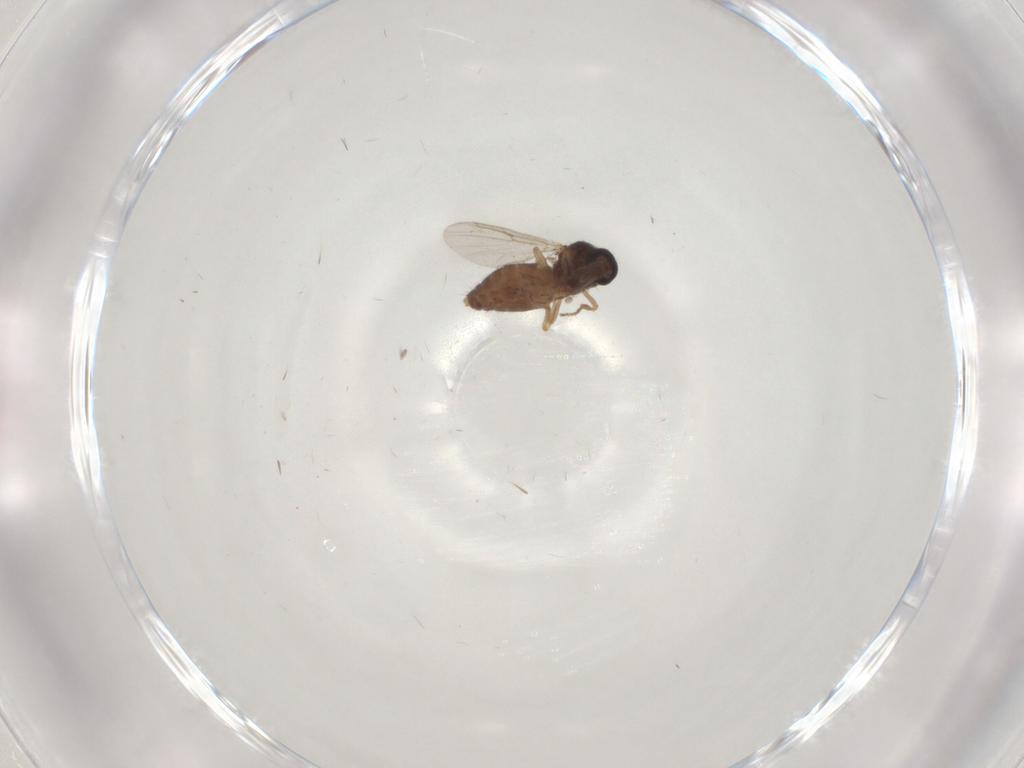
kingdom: Animalia
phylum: Arthropoda
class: Insecta
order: Diptera
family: Ceratopogonidae
